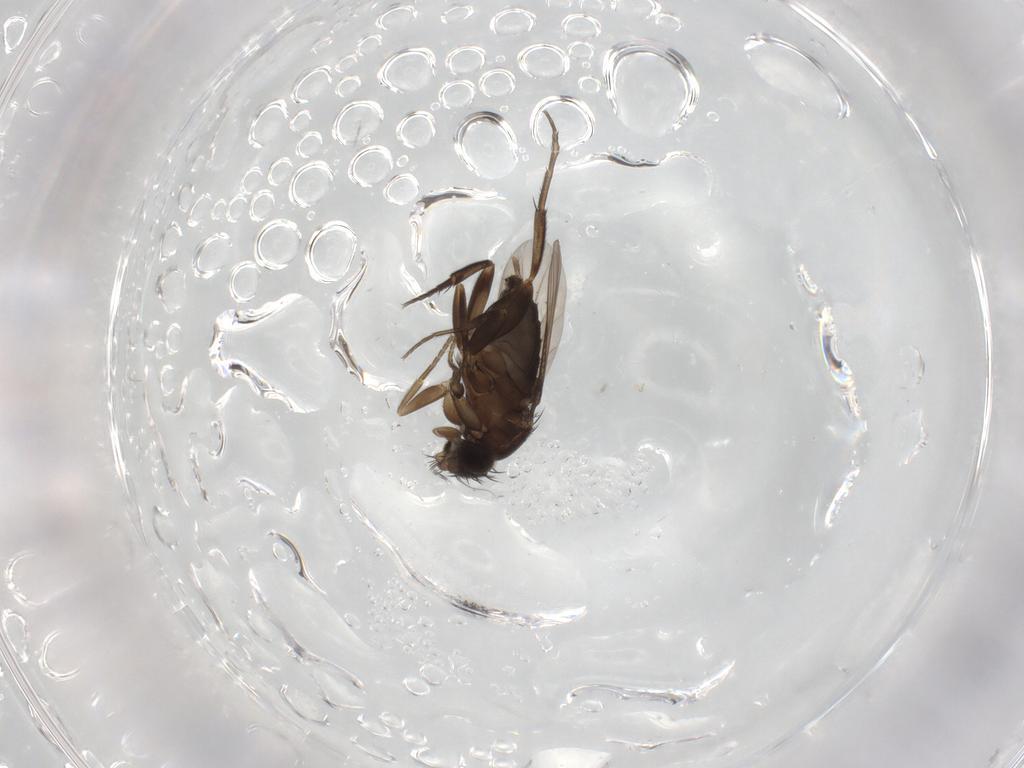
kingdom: Animalia
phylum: Arthropoda
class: Insecta
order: Diptera
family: Phoridae
